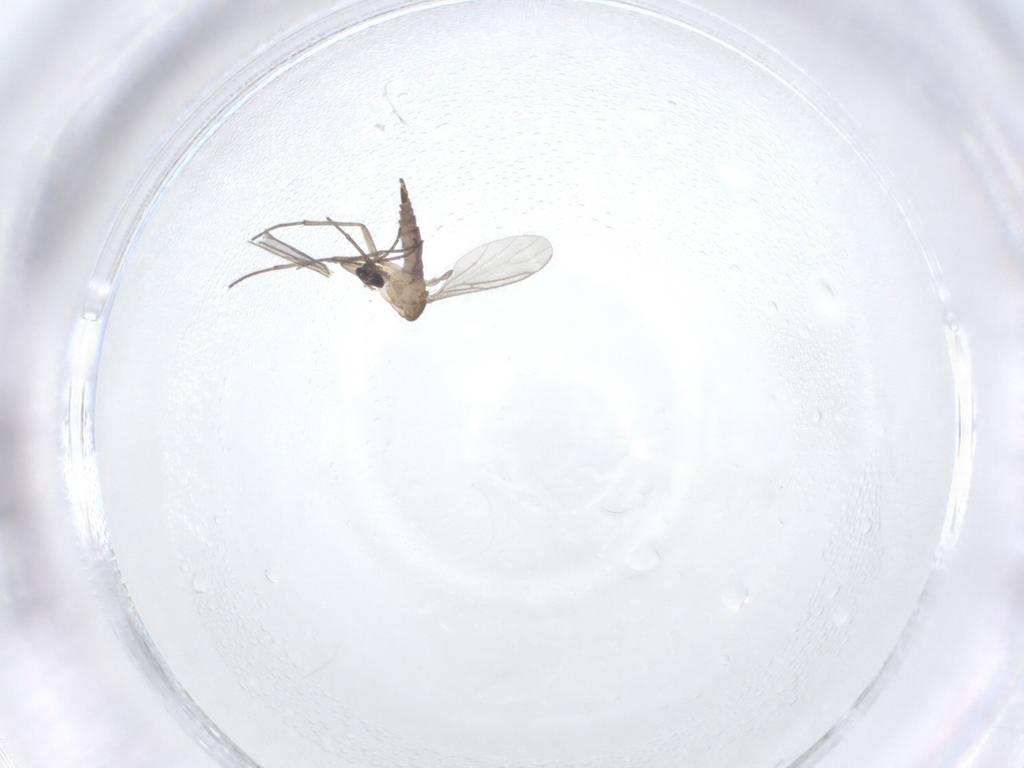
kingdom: Animalia
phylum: Arthropoda
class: Insecta
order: Diptera
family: Sciaridae
